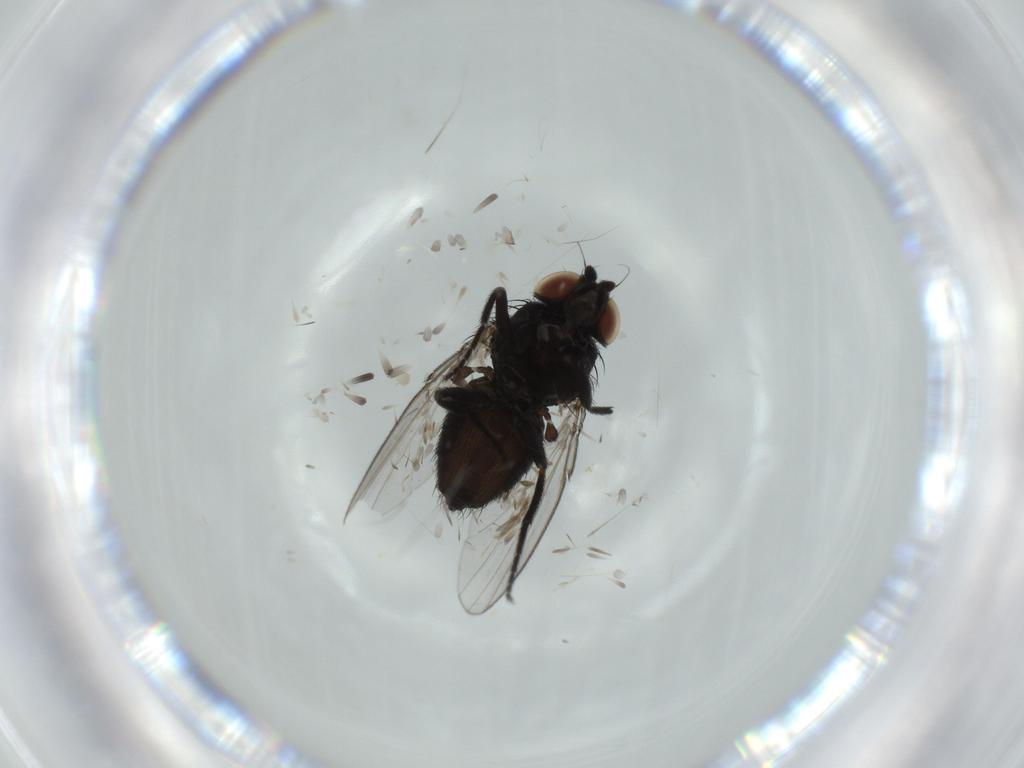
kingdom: Animalia
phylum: Arthropoda
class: Insecta
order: Diptera
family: Milichiidae
